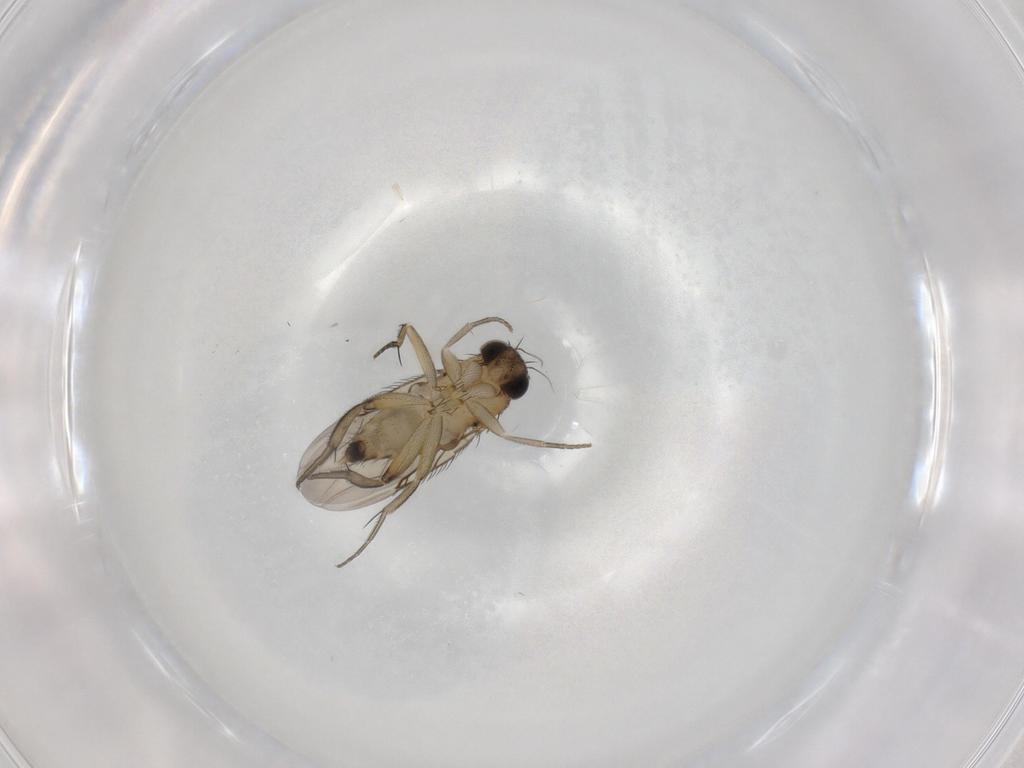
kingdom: Animalia
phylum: Arthropoda
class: Insecta
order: Diptera
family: Phoridae
